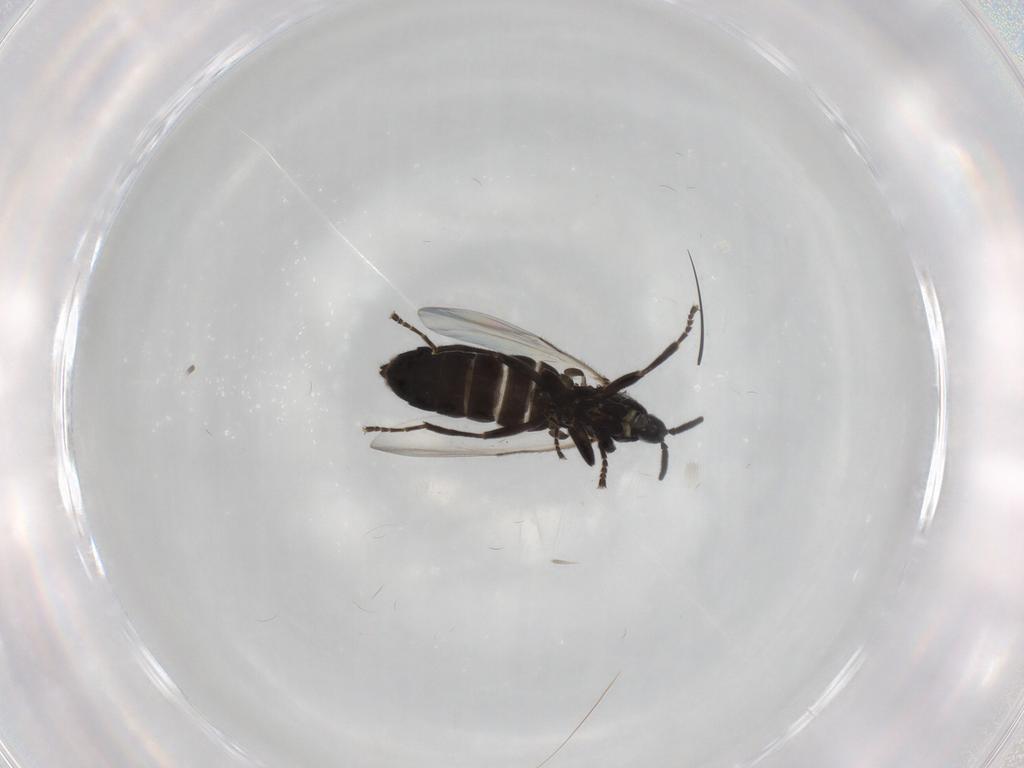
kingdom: Animalia
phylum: Arthropoda
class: Insecta
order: Diptera
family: Scatopsidae
